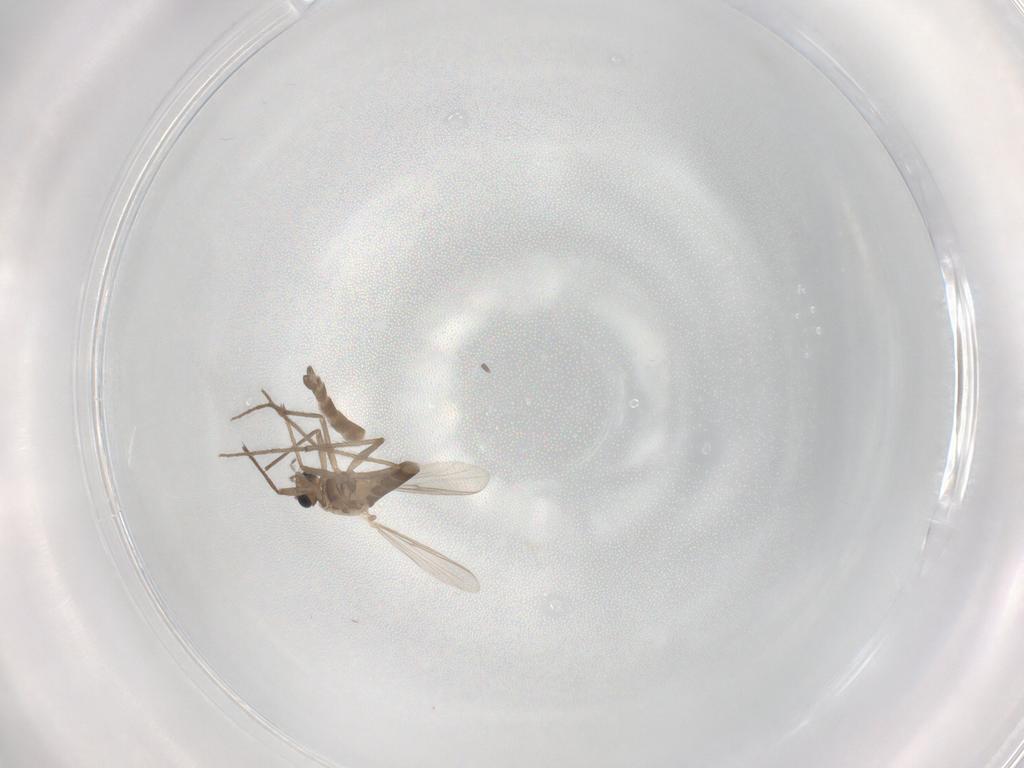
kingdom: Animalia
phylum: Arthropoda
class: Insecta
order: Diptera
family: Chironomidae
